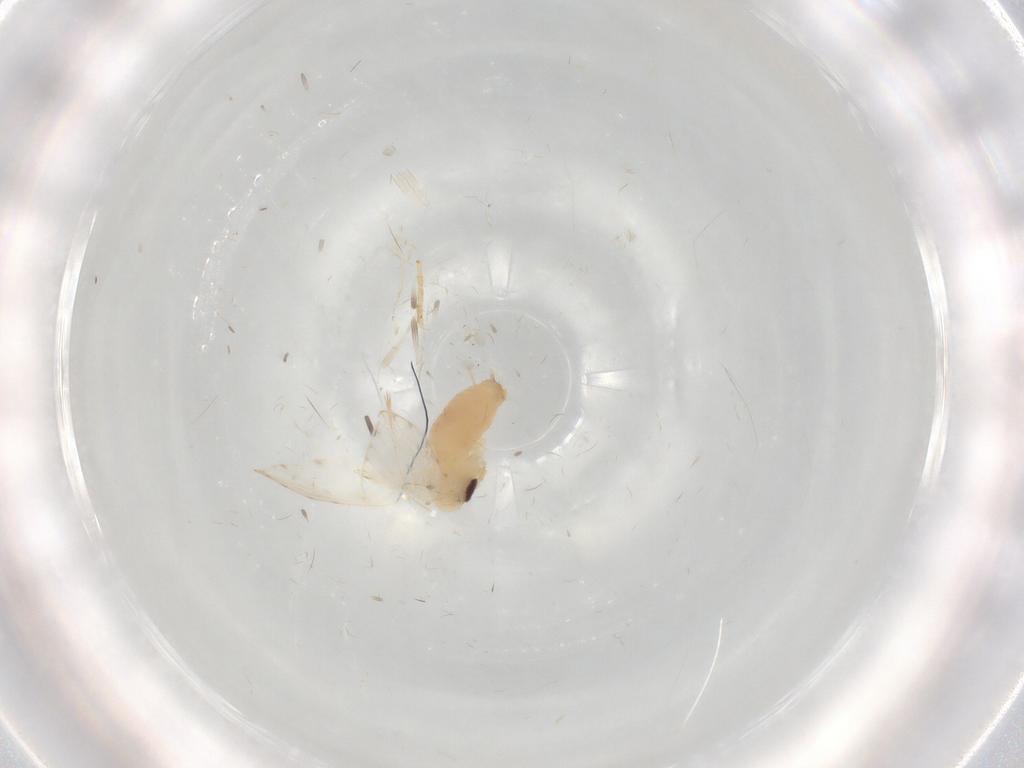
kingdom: Animalia
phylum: Arthropoda
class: Insecta
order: Diptera
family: Psychodidae
